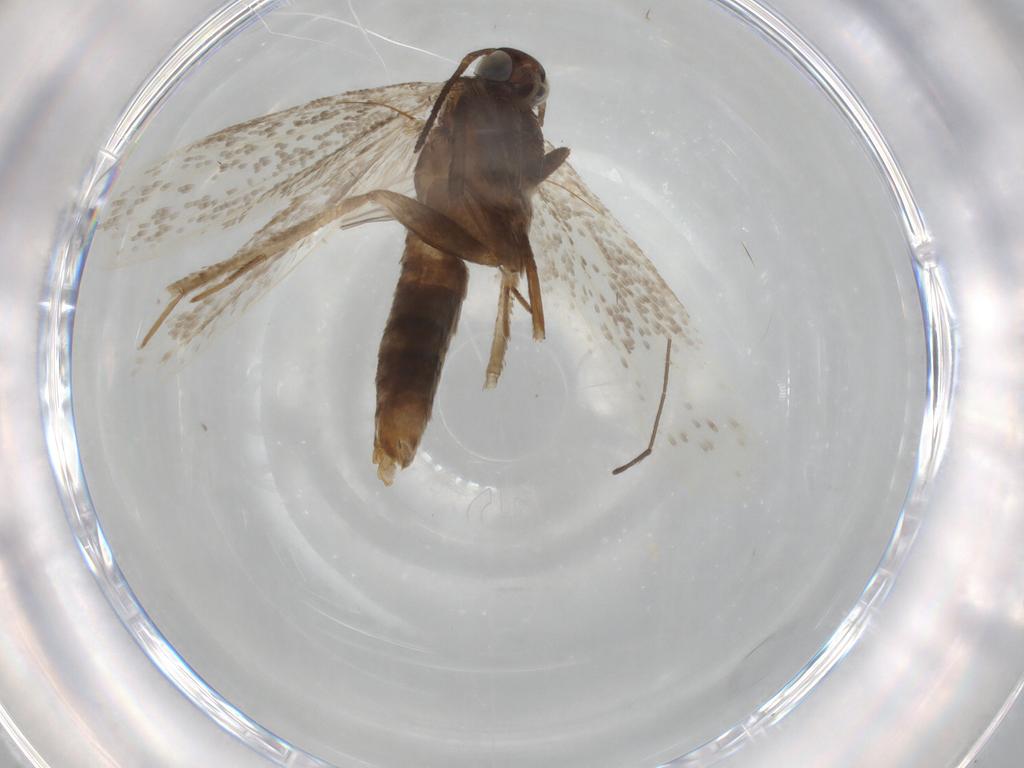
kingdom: Animalia
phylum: Arthropoda
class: Insecta
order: Lepidoptera
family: Gelechiidae
